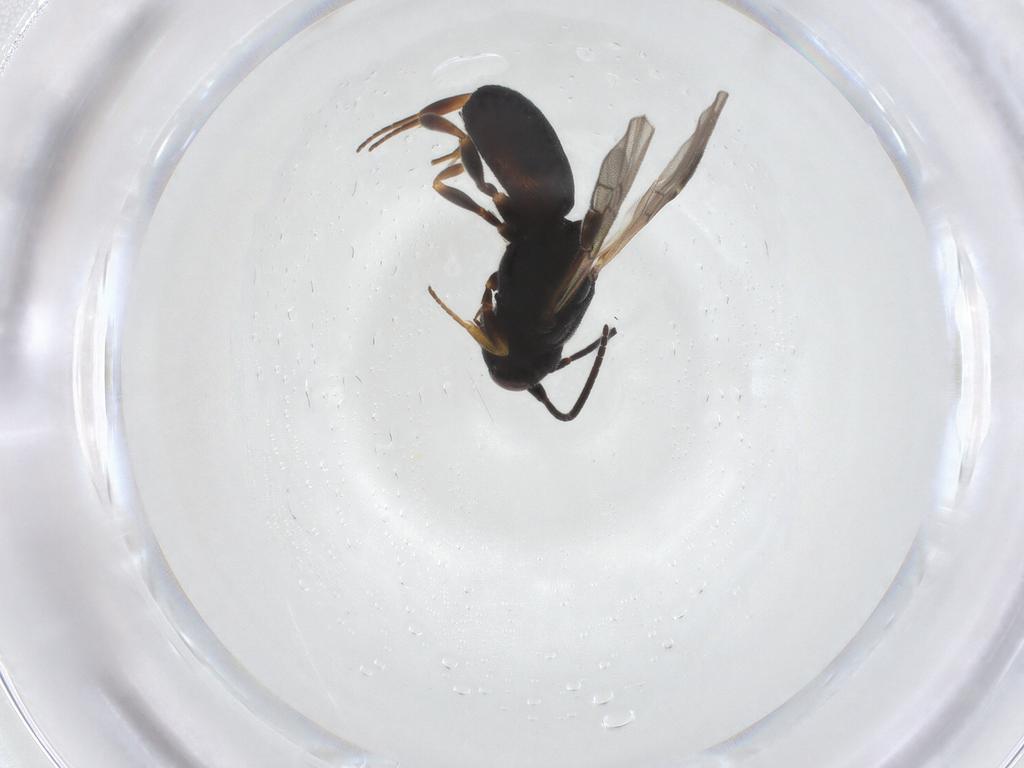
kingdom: Animalia
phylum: Arthropoda
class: Insecta
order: Hymenoptera
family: Braconidae
